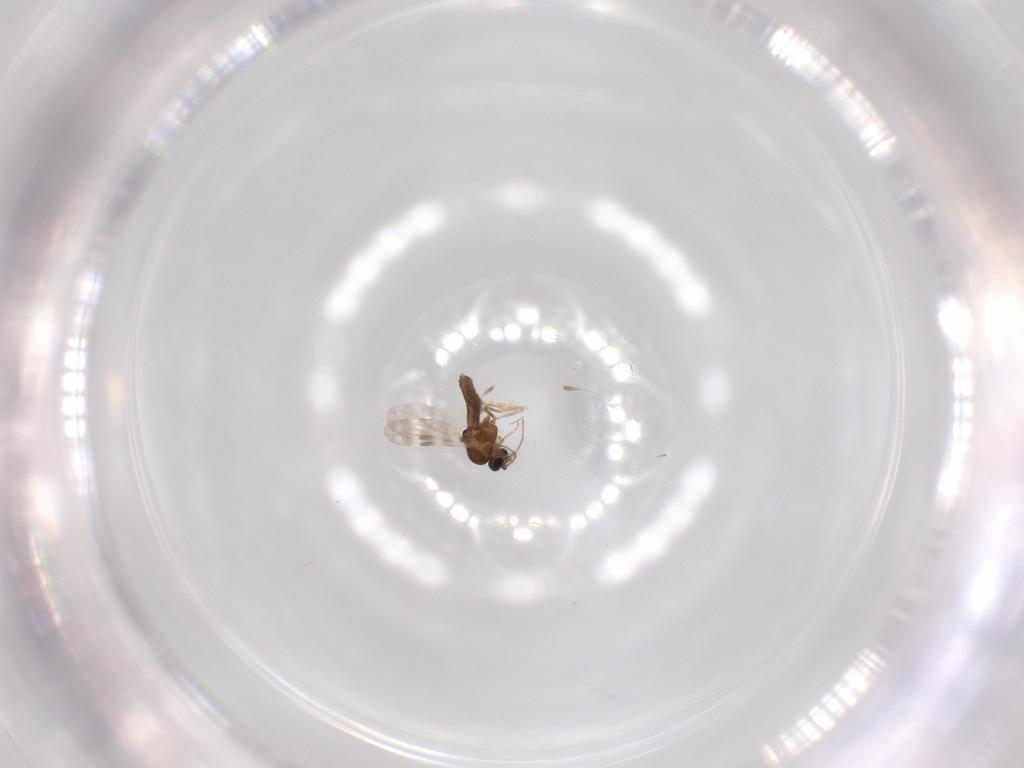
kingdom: Animalia
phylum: Arthropoda
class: Insecta
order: Diptera
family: Ceratopogonidae
